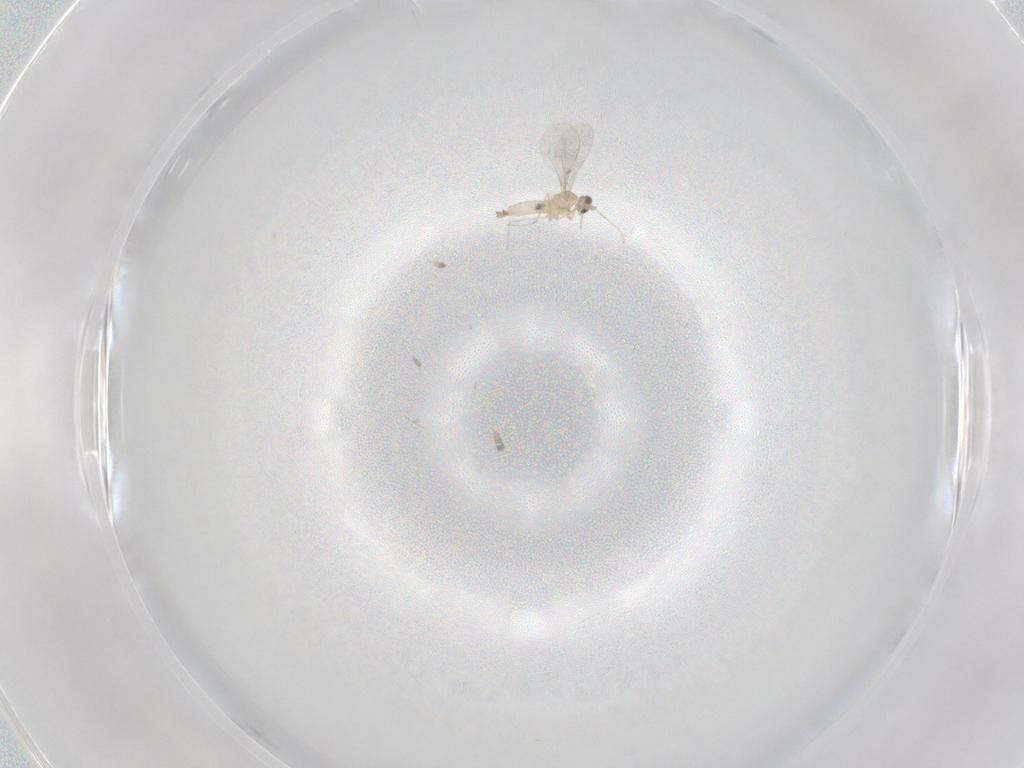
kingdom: Animalia
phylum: Arthropoda
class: Insecta
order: Diptera
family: Cecidomyiidae
